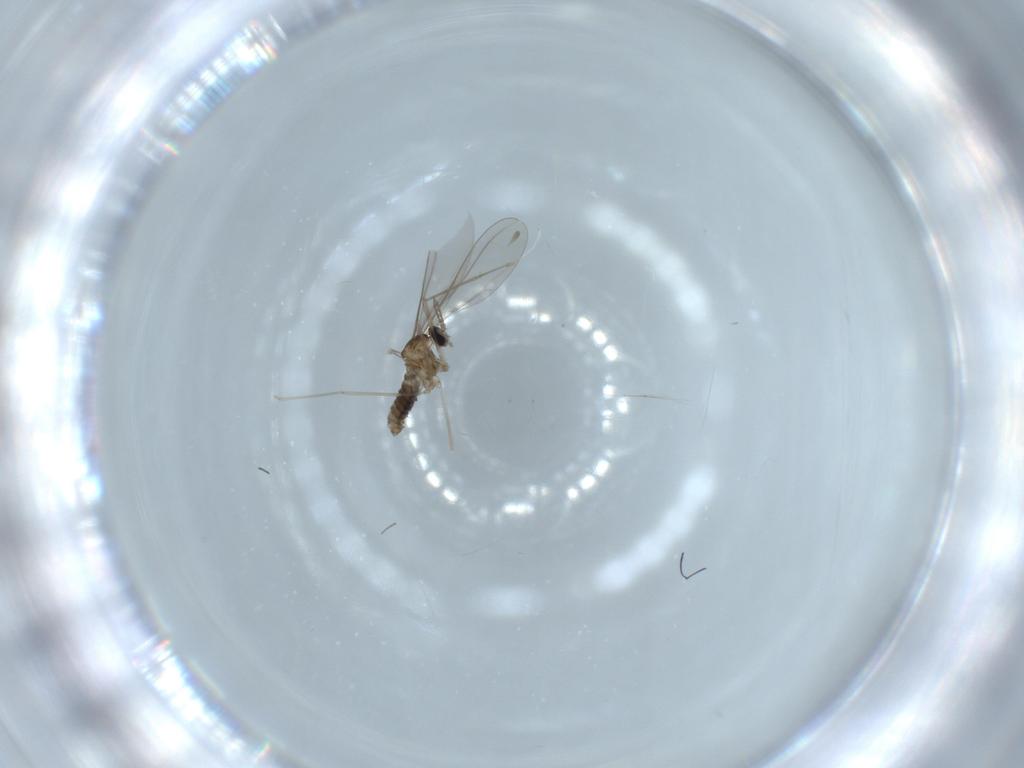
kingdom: Animalia
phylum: Arthropoda
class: Insecta
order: Diptera
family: Cecidomyiidae
